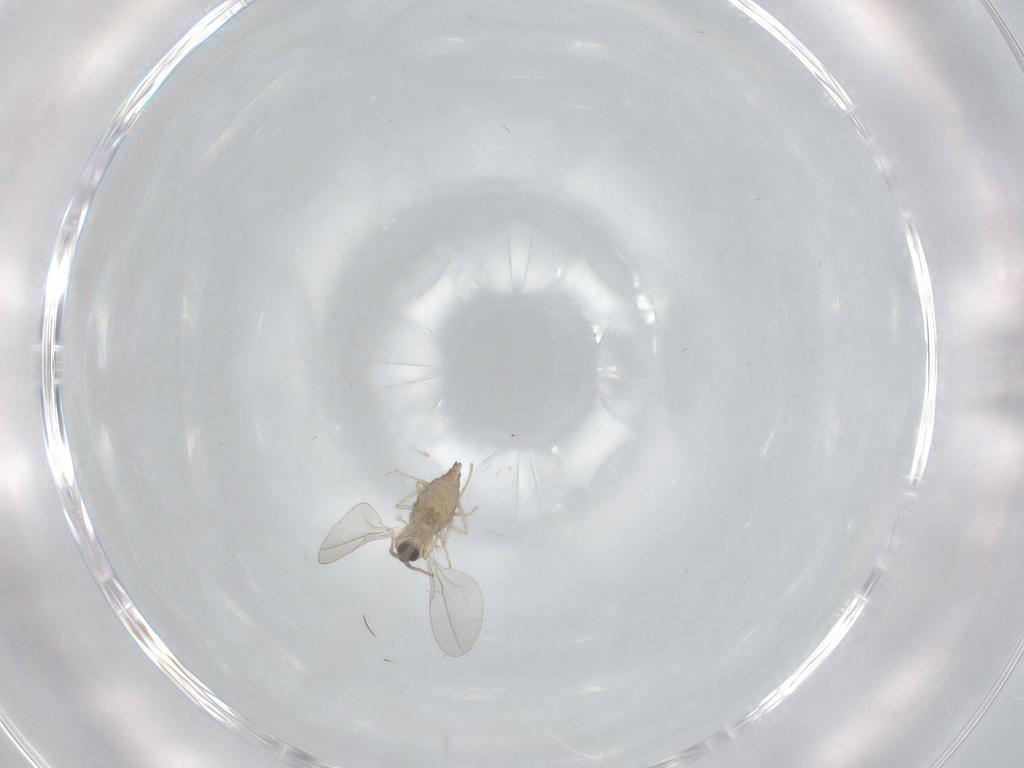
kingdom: Animalia
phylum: Arthropoda
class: Insecta
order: Diptera
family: Cecidomyiidae
